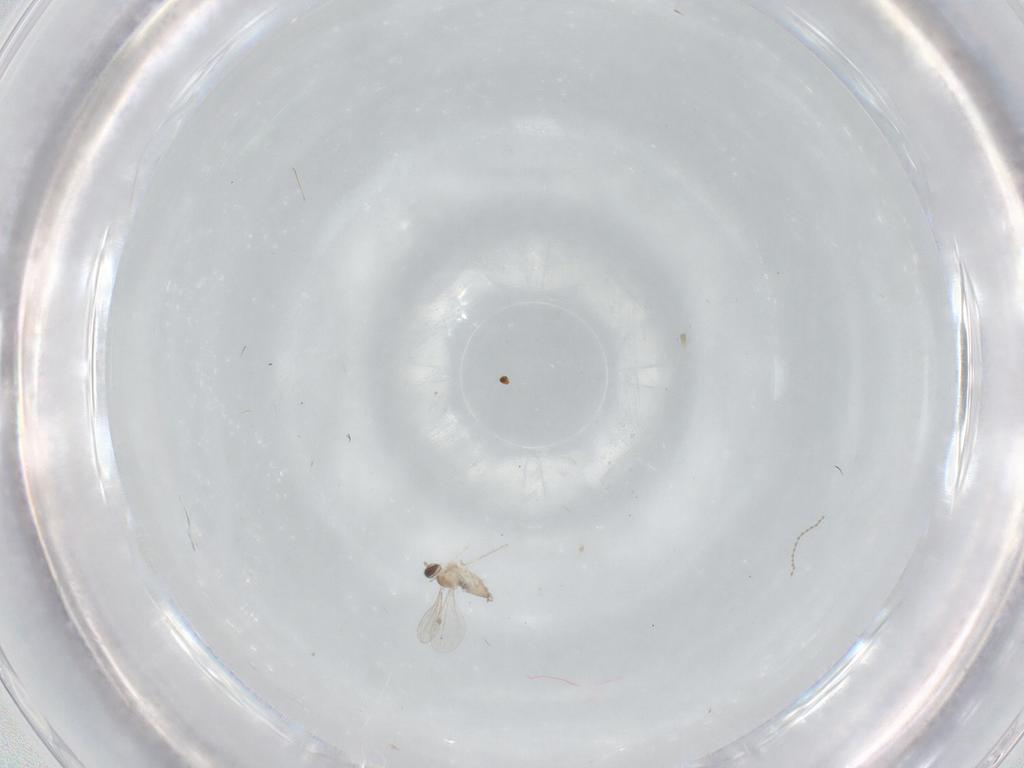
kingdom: Animalia
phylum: Arthropoda
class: Insecta
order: Diptera
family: Cecidomyiidae
